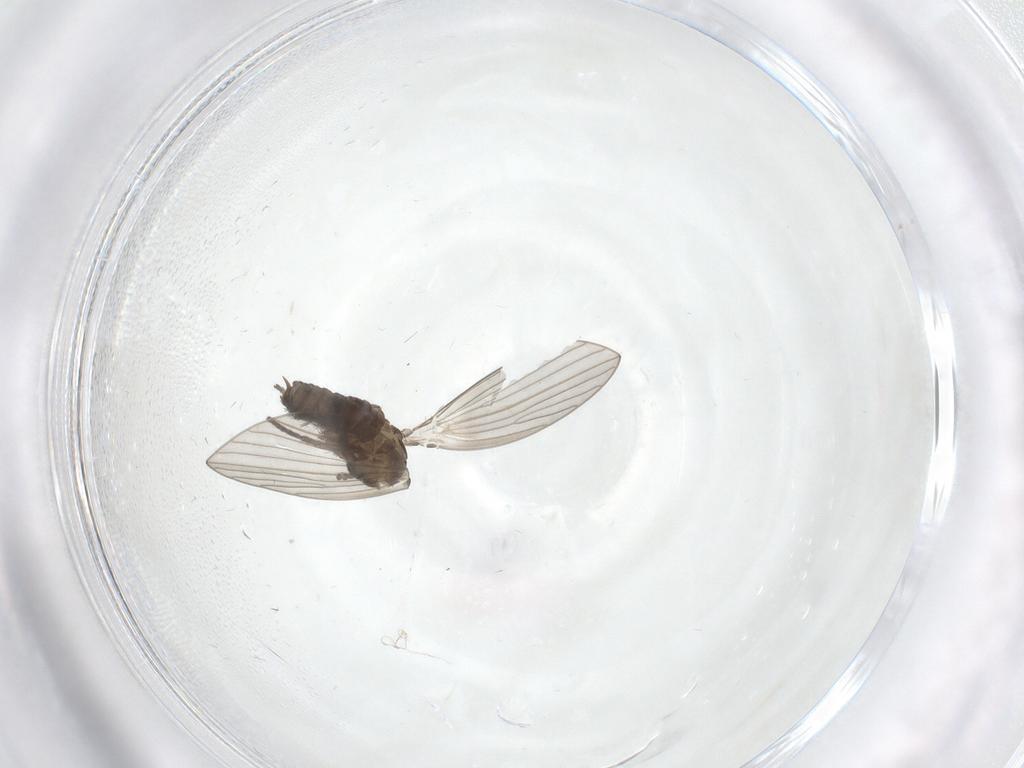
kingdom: Animalia
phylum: Arthropoda
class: Insecta
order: Diptera
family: Psychodidae
